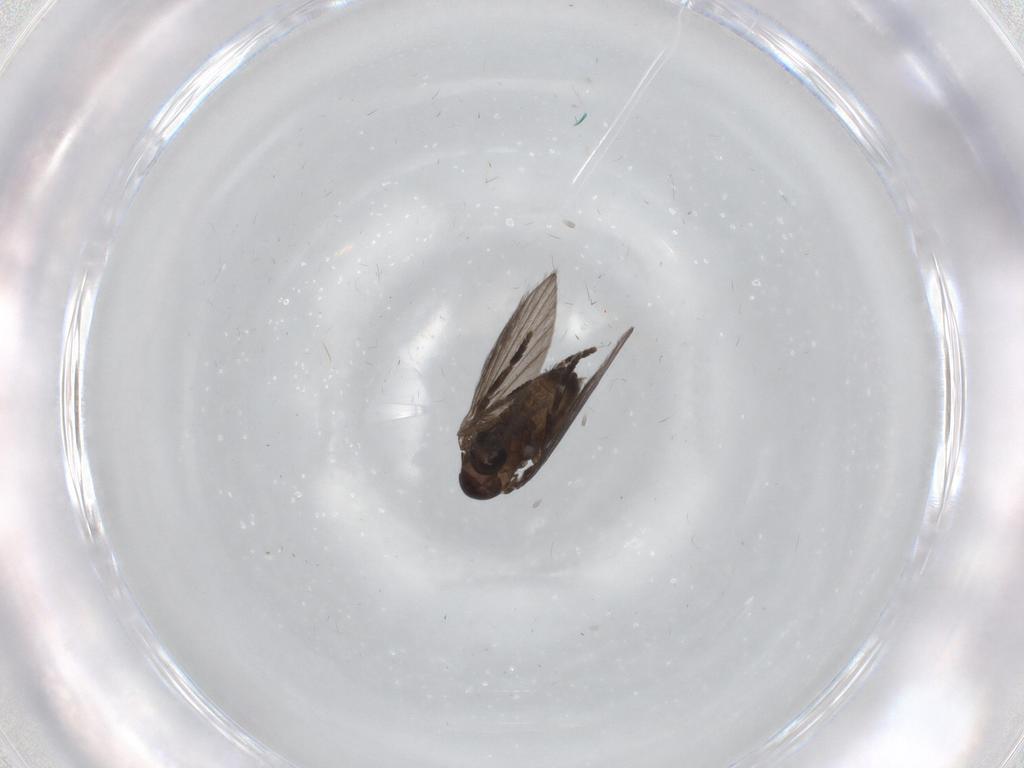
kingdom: Animalia
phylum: Arthropoda
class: Insecta
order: Diptera
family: Psychodidae
